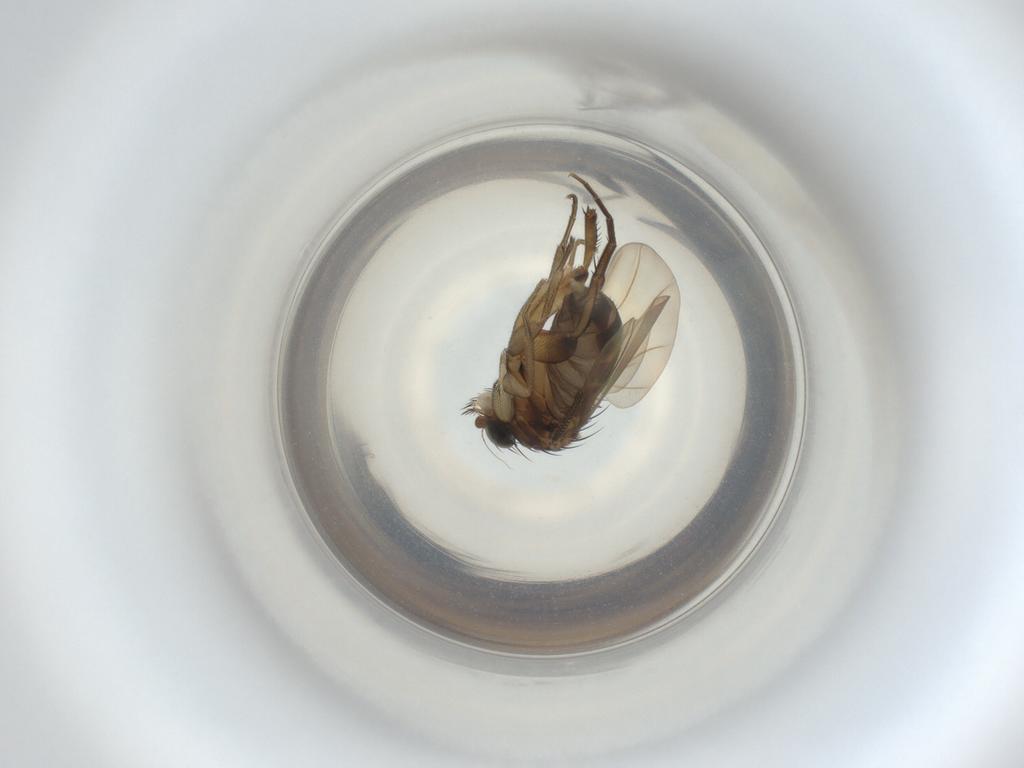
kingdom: Animalia
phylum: Arthropoda
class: Insecta
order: Diptera
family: Phoridae
